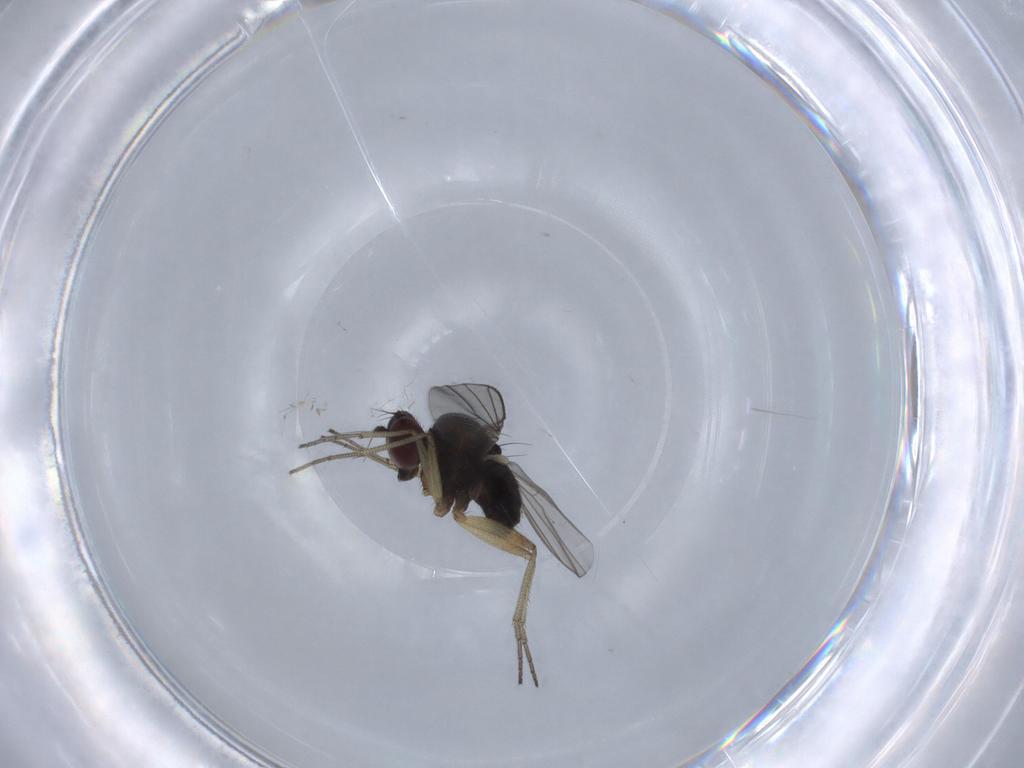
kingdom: Animalia
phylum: Arthropoda
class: Insecta
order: Diptera
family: Dolichopodidae
